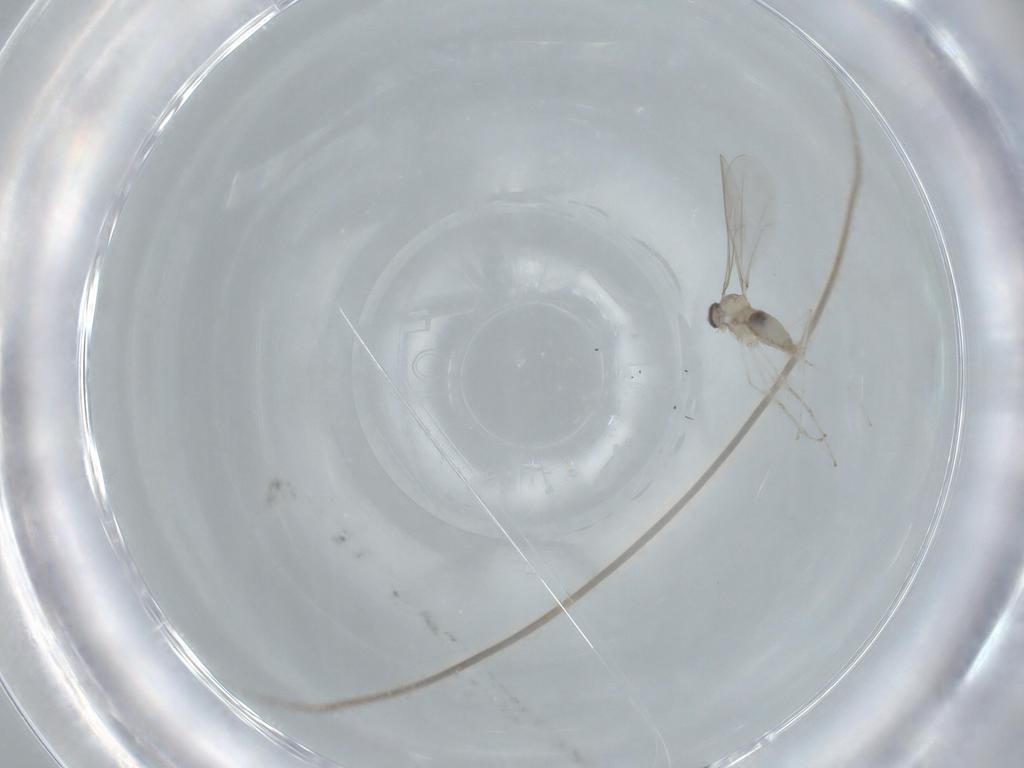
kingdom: Animalia
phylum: Arthropoda
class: Insecta
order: Diptera
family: Cecidomyiidae
